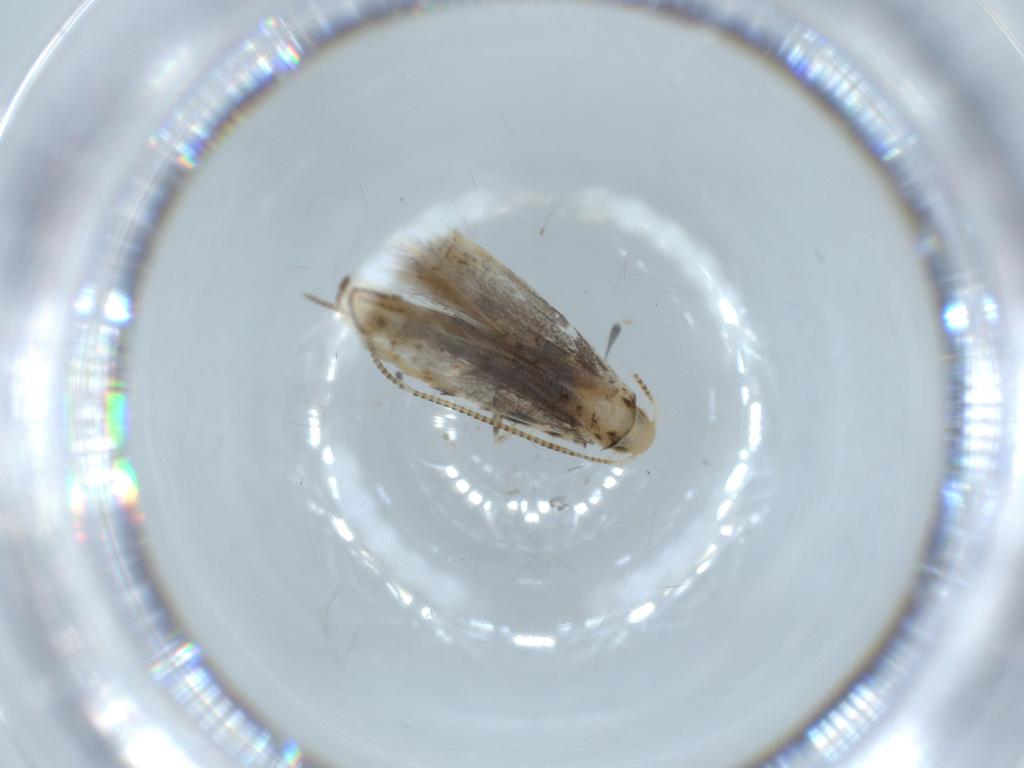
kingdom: Animalia
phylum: Arthropoda
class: Insecta
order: Lepidoptera
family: Gracillariidae
